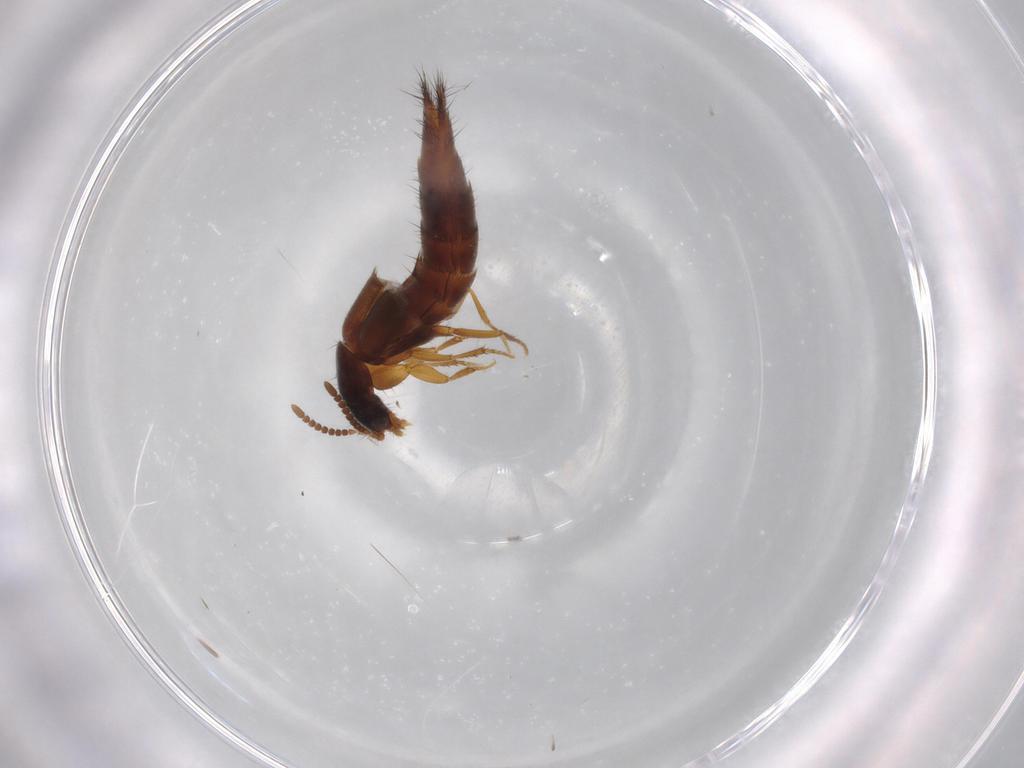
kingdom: Animalia
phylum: Arthropoda
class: Insecta
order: Coleoptera
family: Staphylinidae
